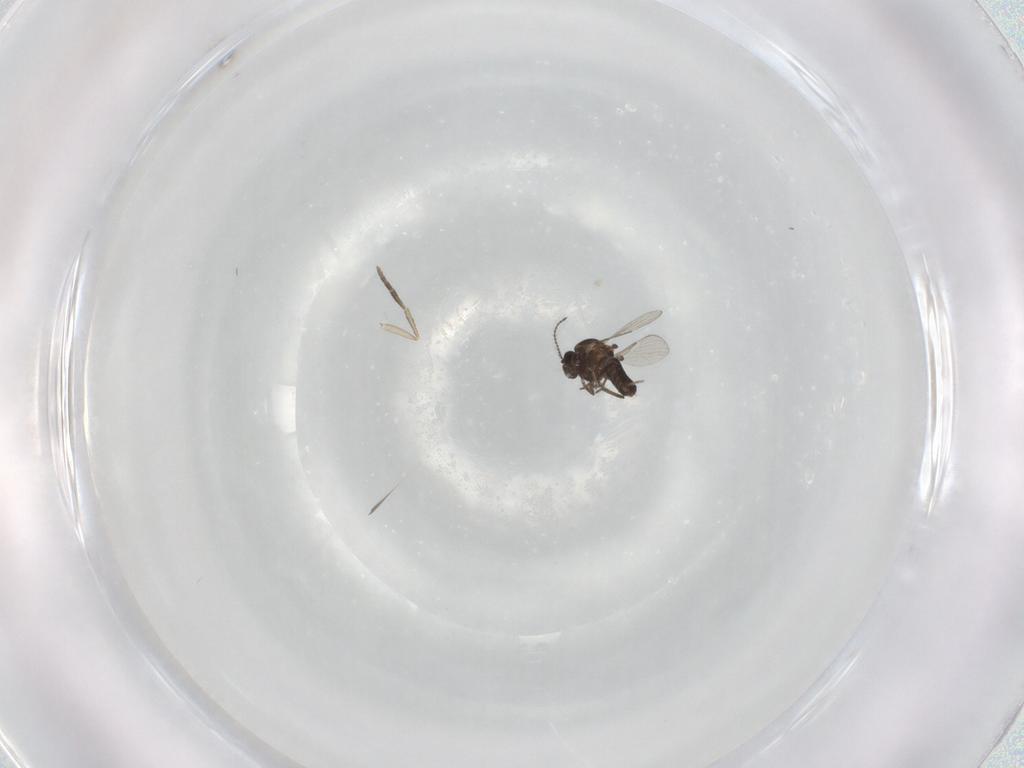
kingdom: Animalia
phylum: Arthropoda
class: Insecta
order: Diptera
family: Ceratopogonidae
